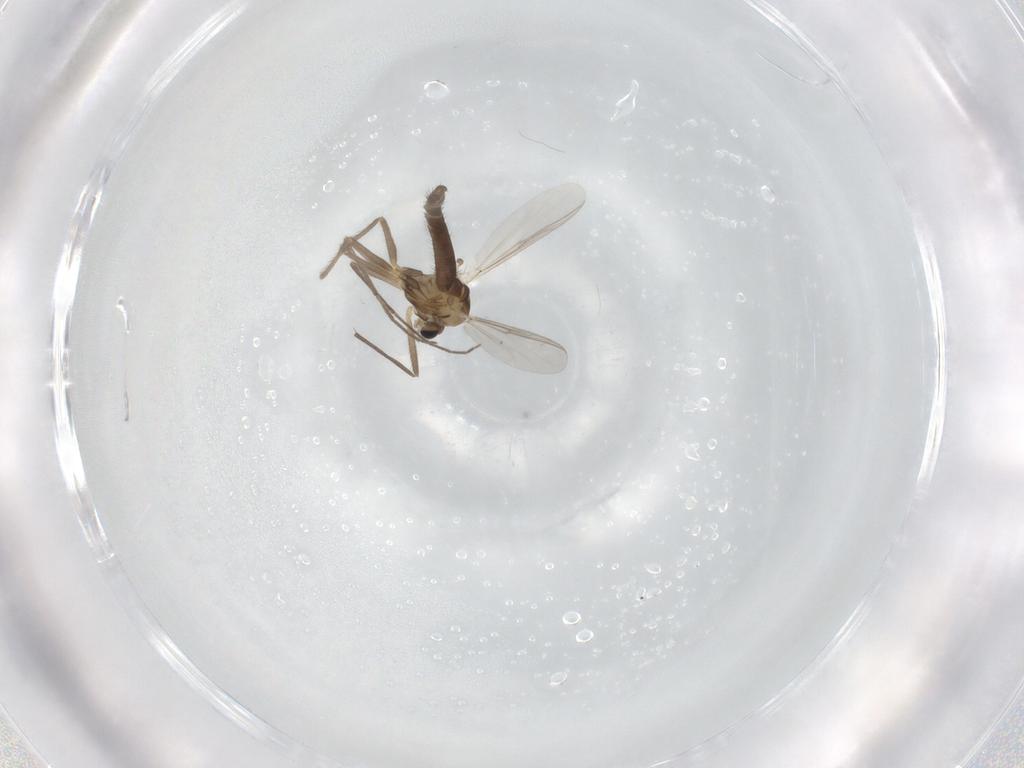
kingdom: Animalia
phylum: Arthropoda
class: Insecta
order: Diptera
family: Chironomidae
